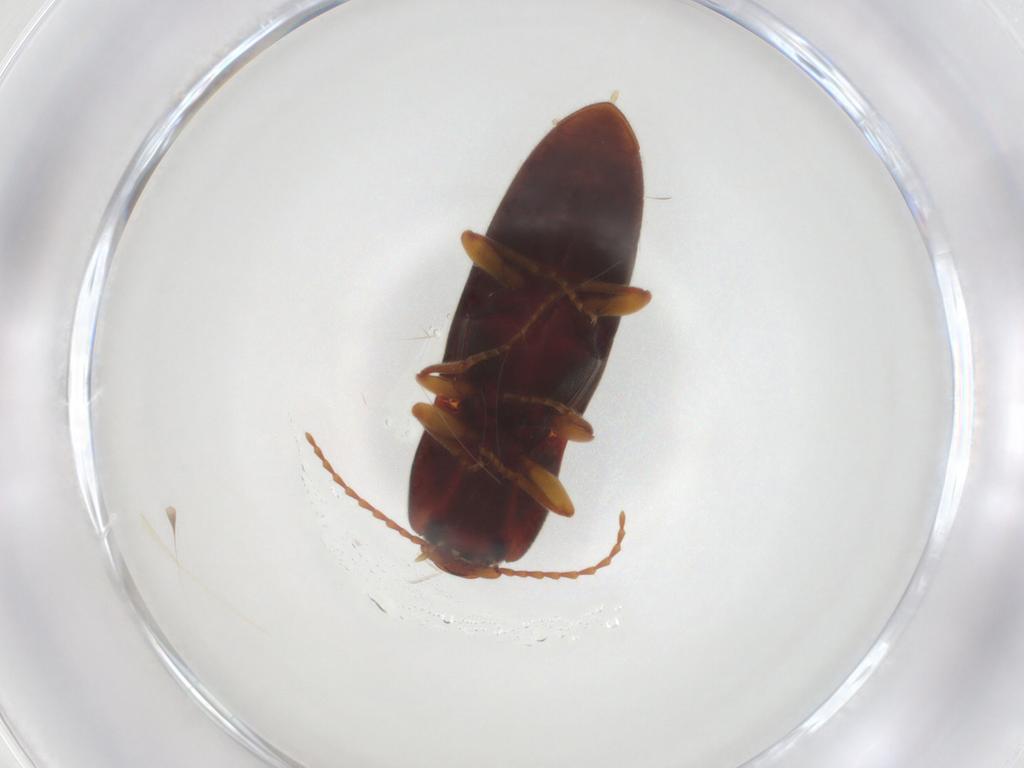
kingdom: Animalia
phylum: Arthropoda
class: Insecta
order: Coleoptera
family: Elateridae
